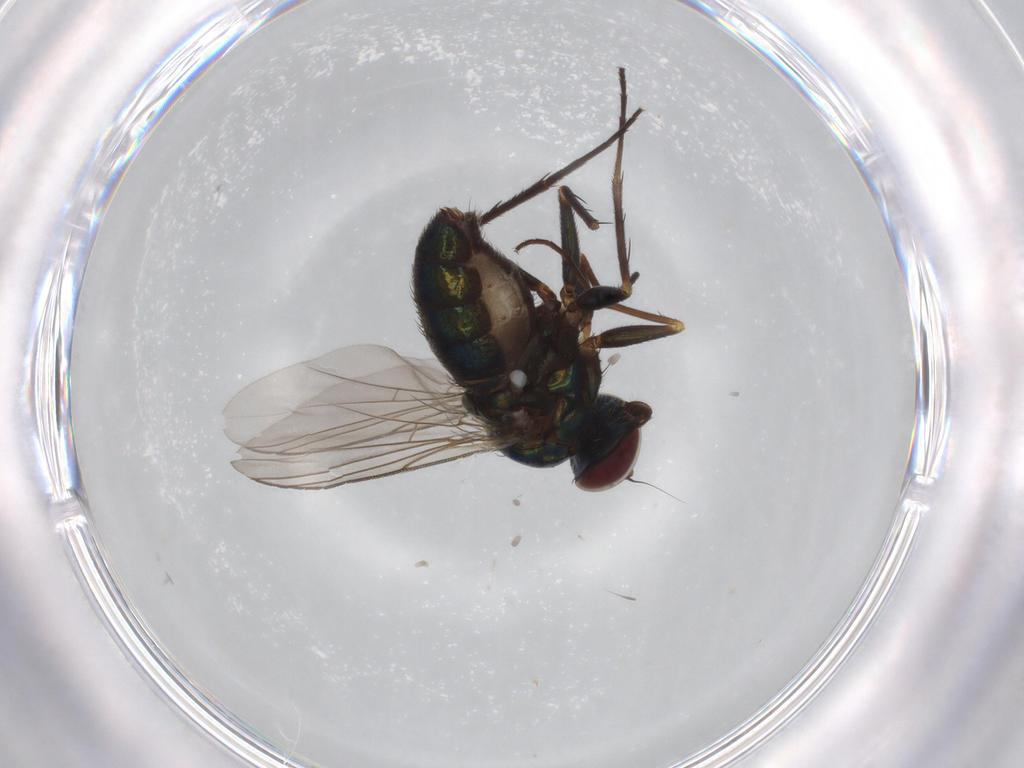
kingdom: Animalia
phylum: Arthropoda
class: Insecta
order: Diptera
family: Dolichopodidae
